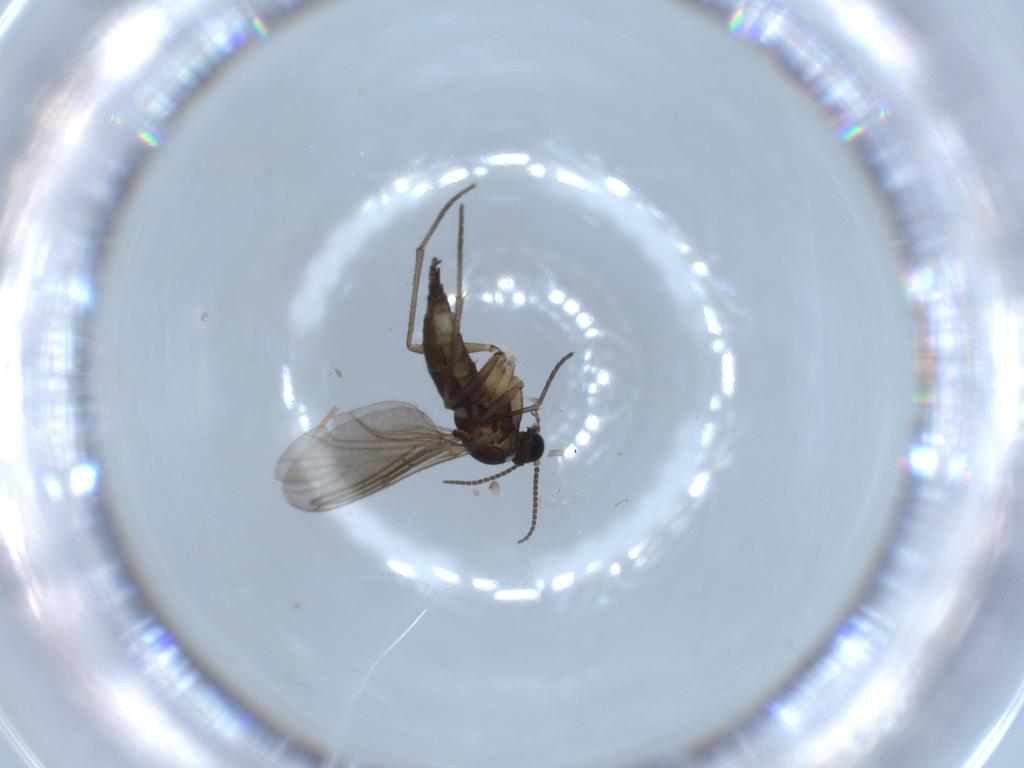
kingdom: Animalia
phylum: Arthropoda
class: Insecta
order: Diptera
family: Sciaridae
